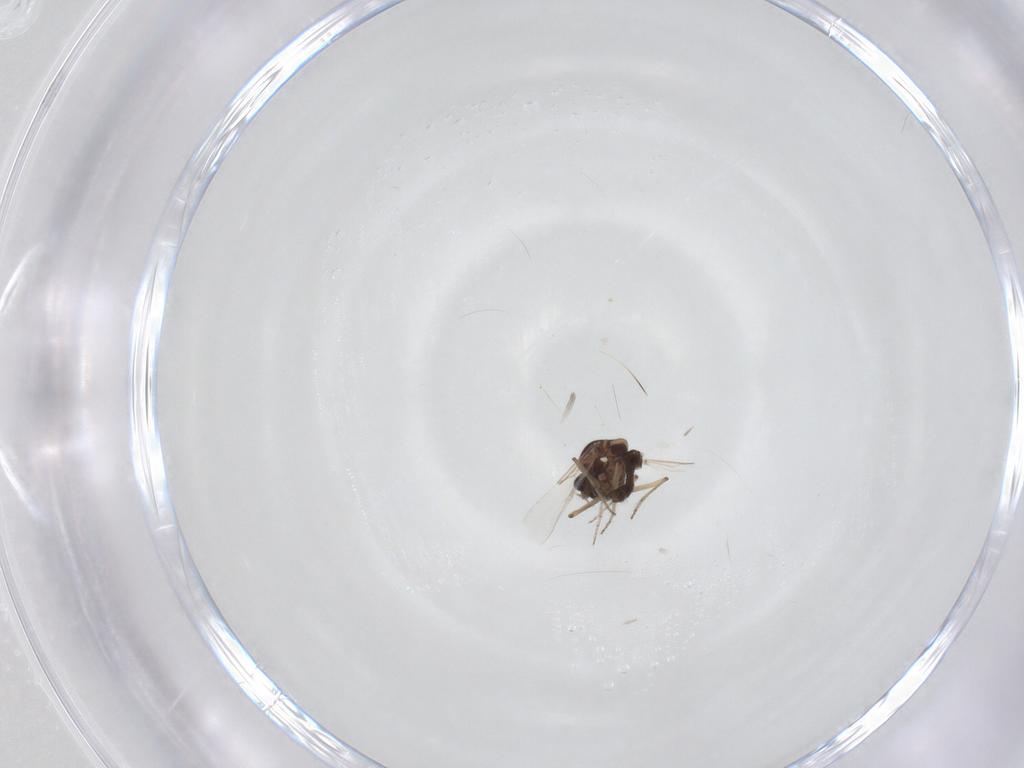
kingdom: Animalia
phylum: Arthropoda
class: Insecta
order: Diptera
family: Ceratopogonidae
